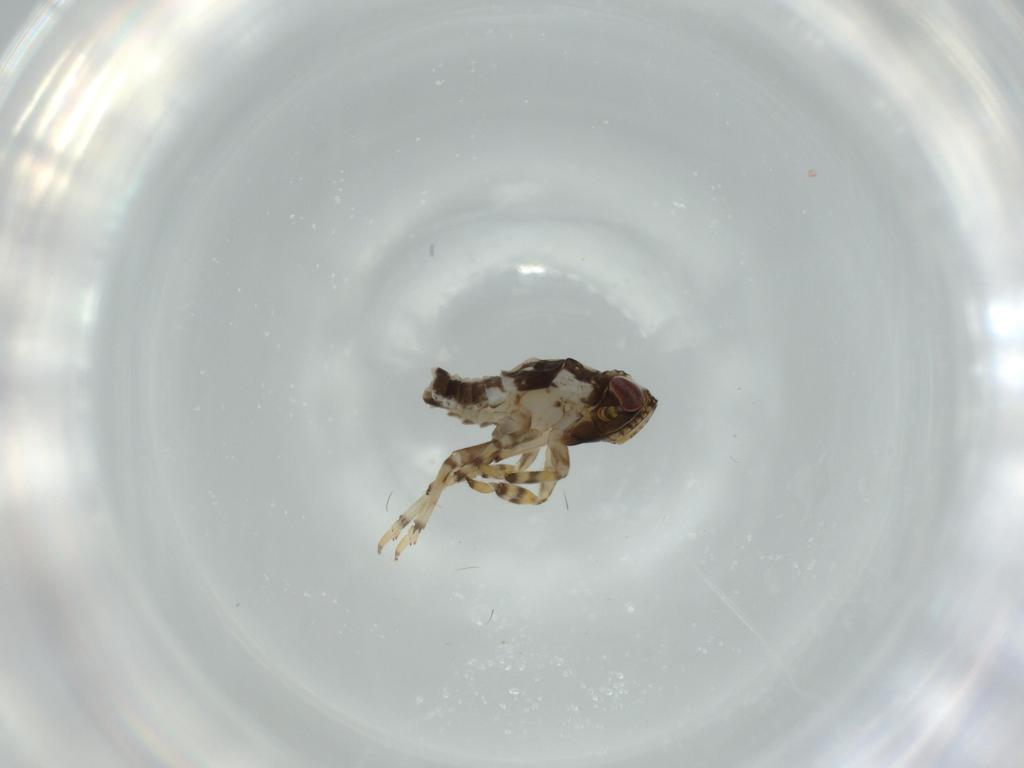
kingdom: Animalia
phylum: Arthropoda
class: Insecta
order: Hemiptera
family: Issidae
